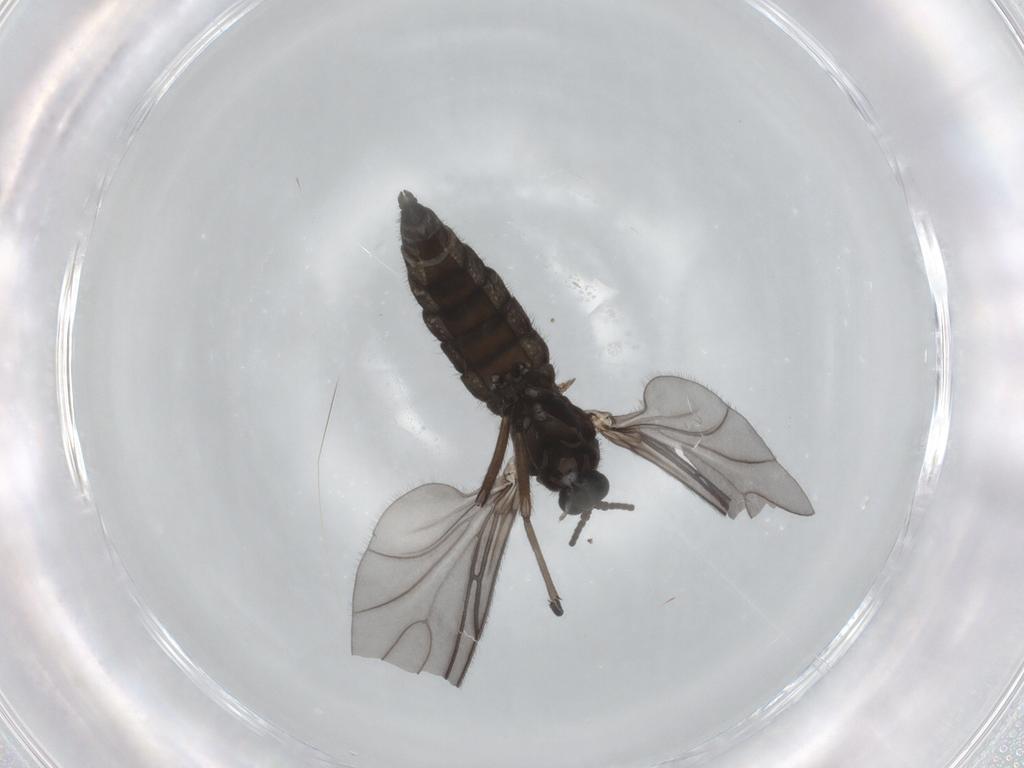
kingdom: Animalia
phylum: Arthropoda
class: Insecta
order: Diptera
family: Sciaridae
